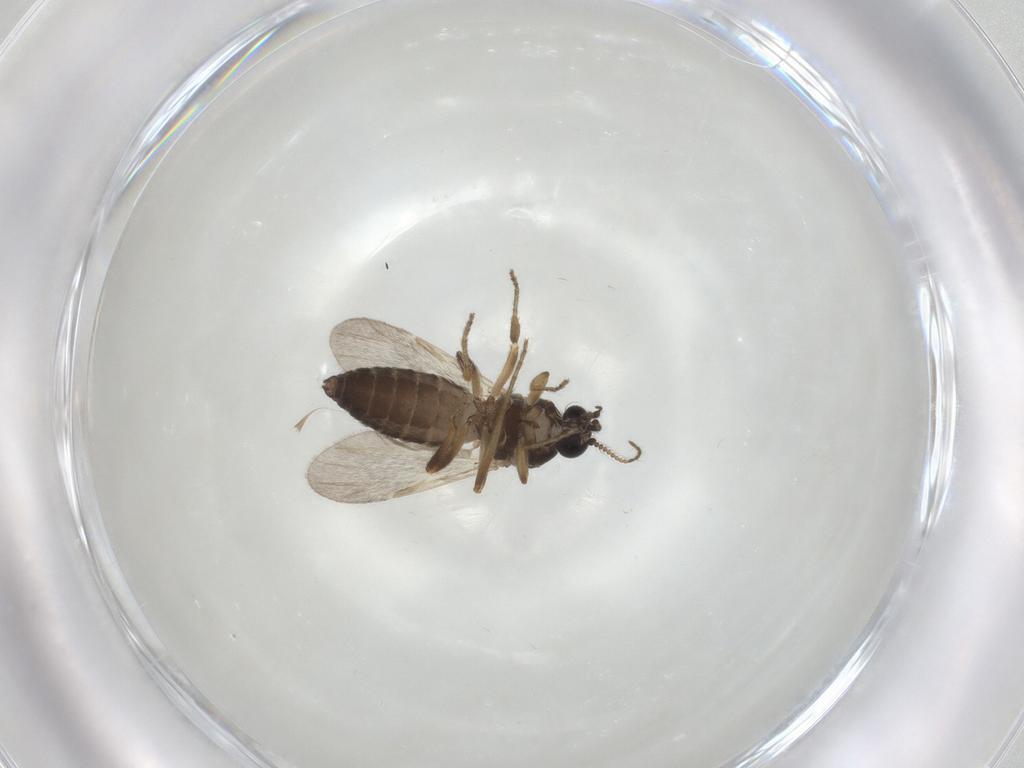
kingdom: Animalia
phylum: Arthropoda
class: Insecta
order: Diptera
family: Ceratopogonidae
